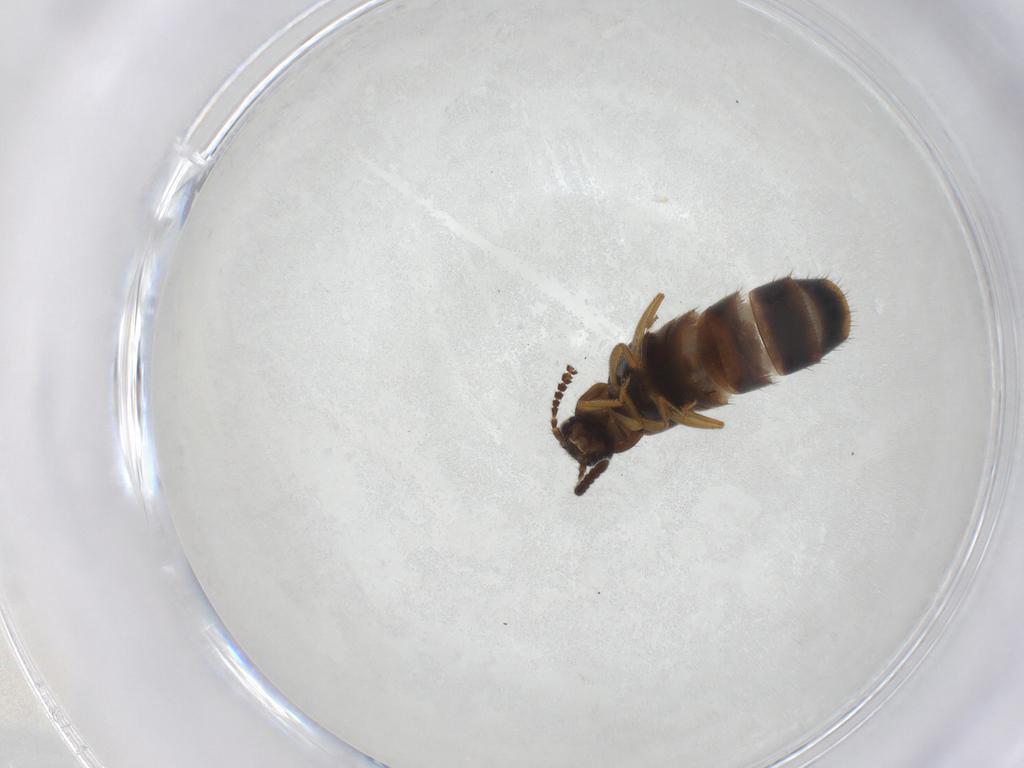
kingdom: Animalia
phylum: Arthropoda
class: Insecta
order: Coleoptera
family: Staphylinidae
